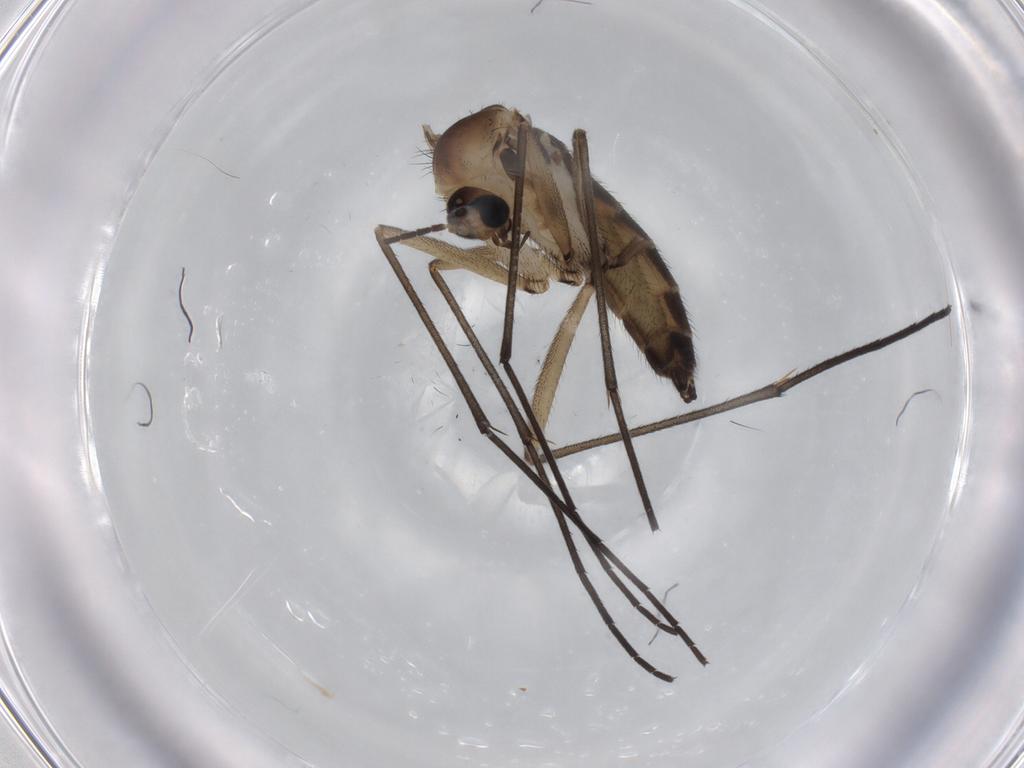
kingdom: Animalia
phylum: Arthropoda
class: Insecta
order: Diptera
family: Sciaridae
